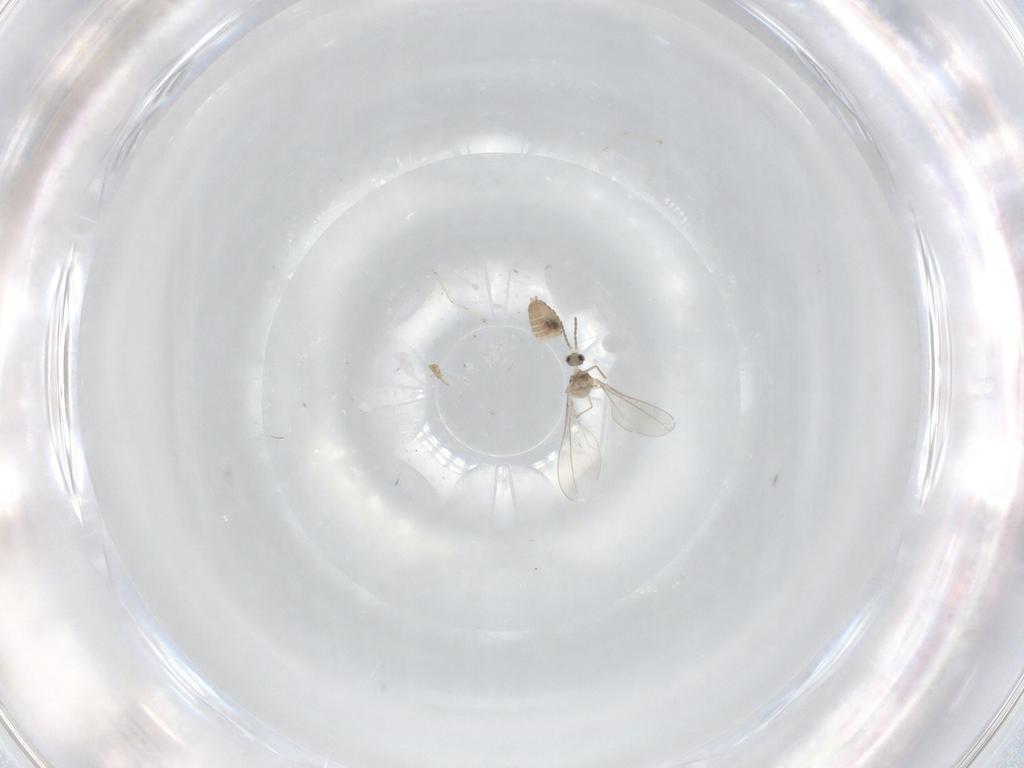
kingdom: Animalia
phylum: Arthropoda
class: Insecta
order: Diptera
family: Cecidomyiidae
